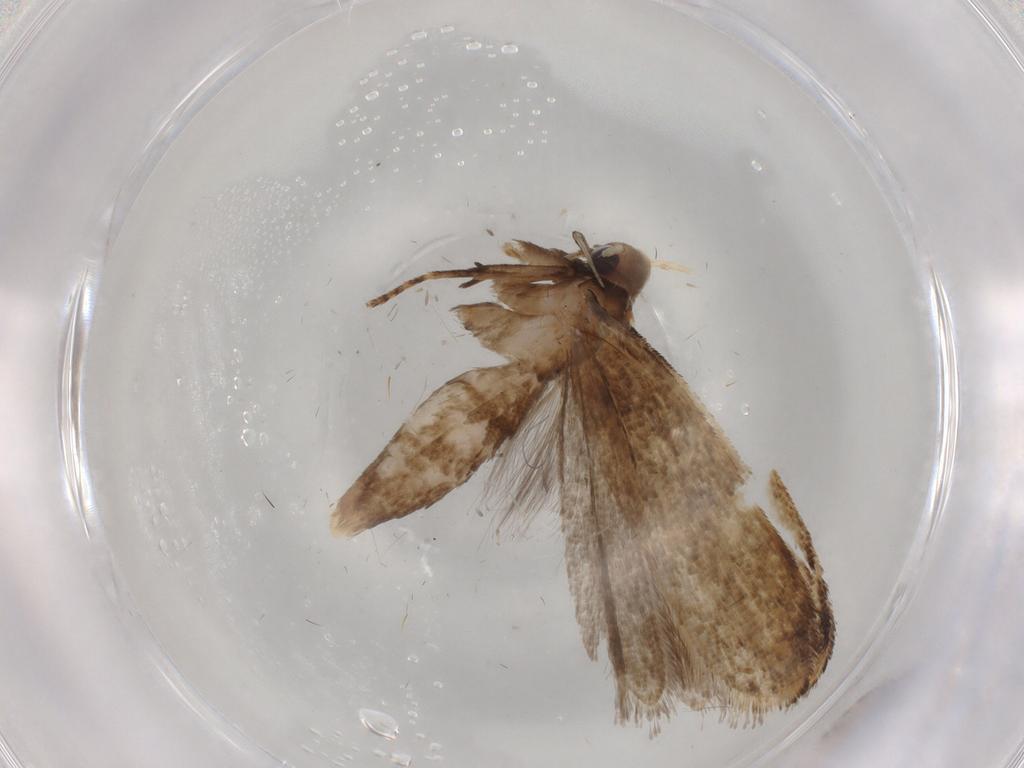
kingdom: Animalia
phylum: Arthropoda
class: Insecta
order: Lepidoptera
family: Gelechiidae
